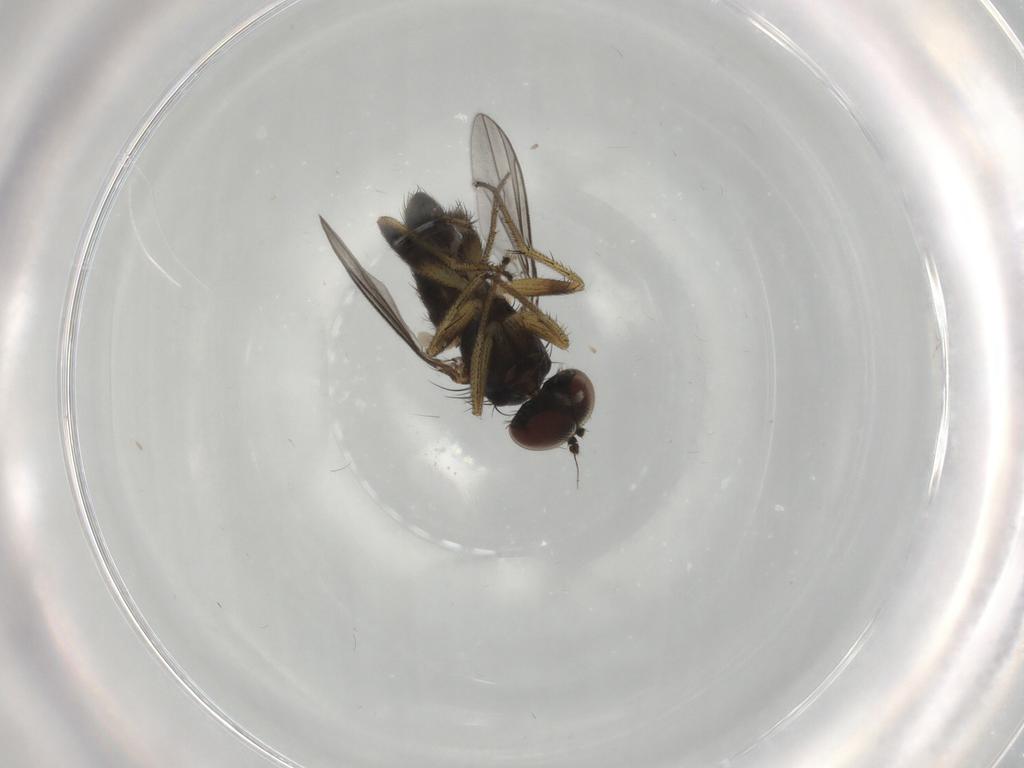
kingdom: Animalia
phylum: Arthropoda
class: Insecta
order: Diptera
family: Dolichopodidae
